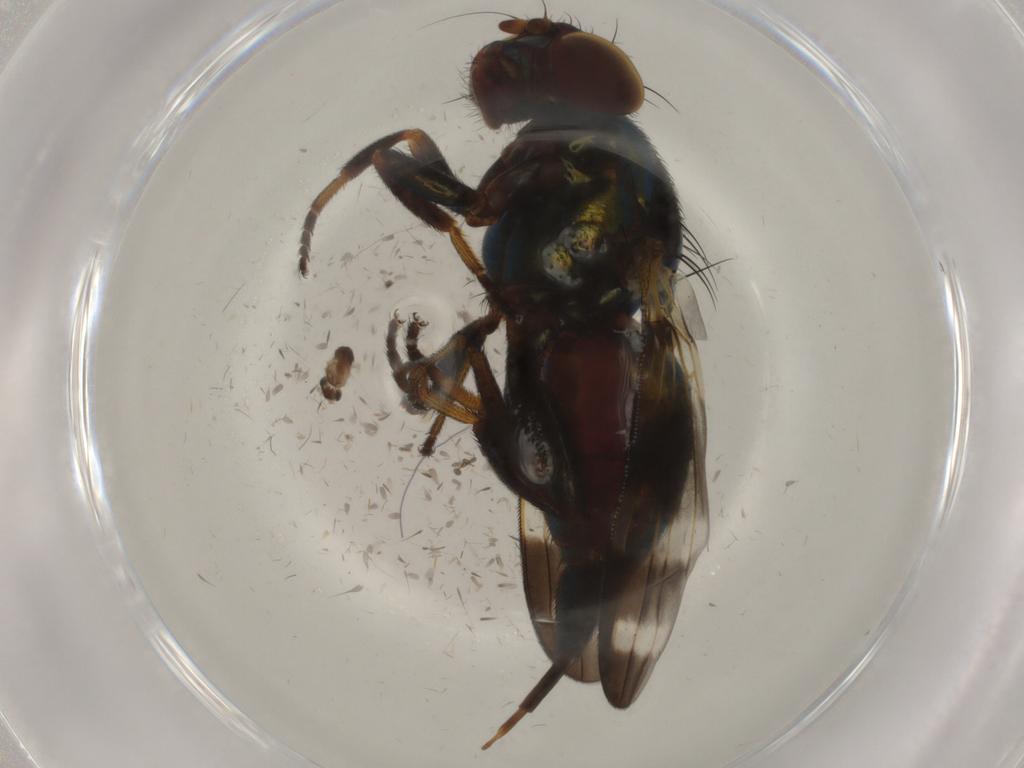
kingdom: Animalia
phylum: Arthropoda
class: Insecta
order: Diptera
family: Ulidiidae
